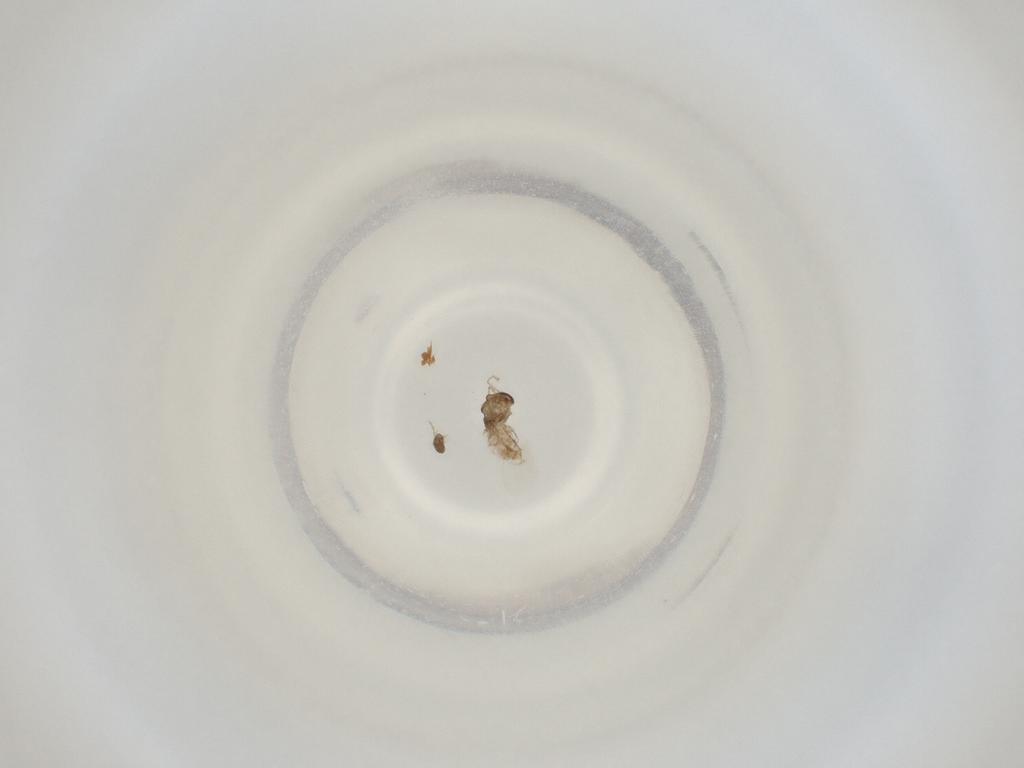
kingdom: Animalia
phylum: Arthropoda
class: Insecta
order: Diptera
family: Cecidomyiidae
